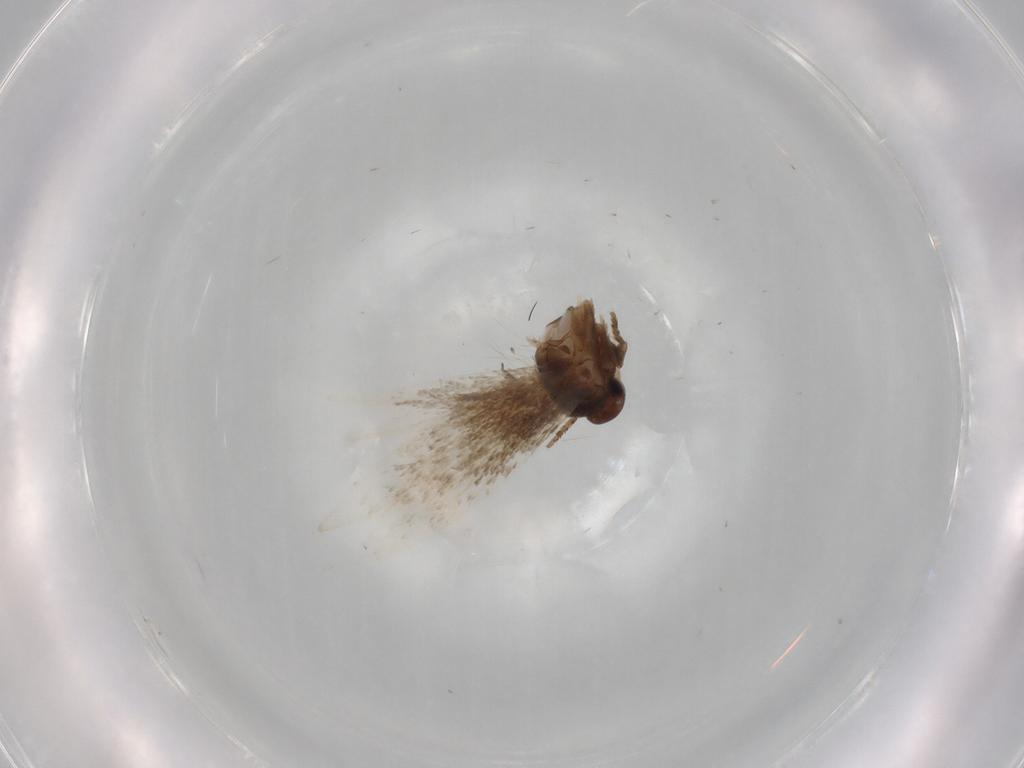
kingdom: Animalia
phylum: Arthropoda
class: Insecta
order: Lepidoptera
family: Hesperiidae
